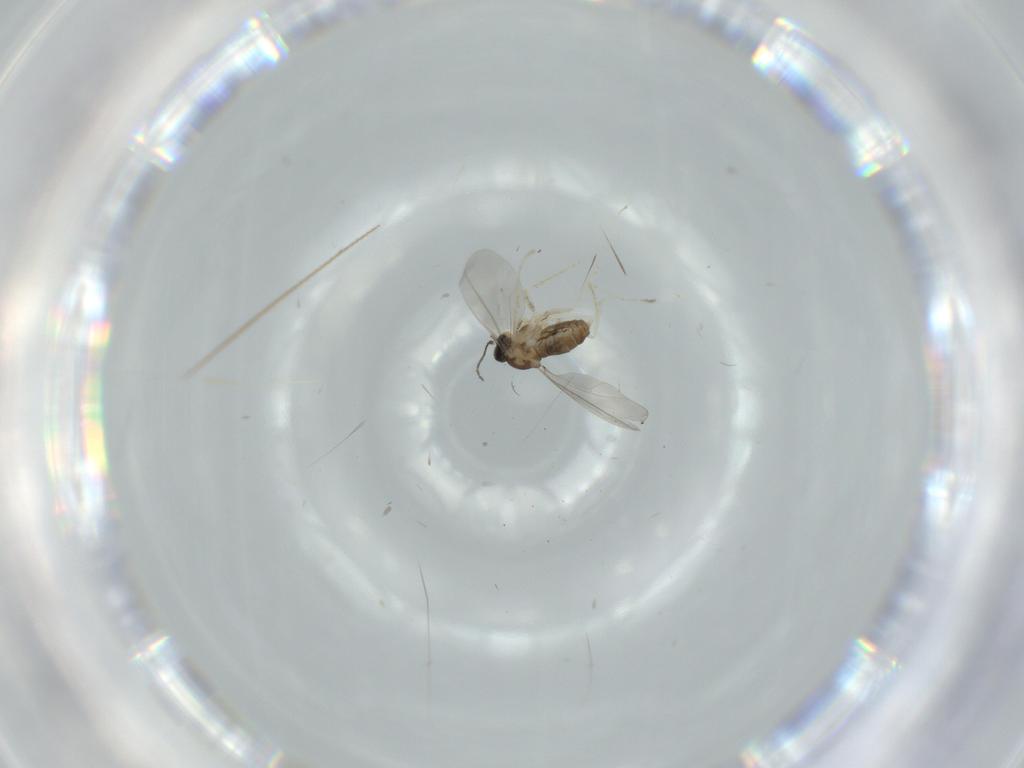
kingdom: Animalia
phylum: Arthropoda
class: Insecta
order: Diptera
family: Cecidomyiidae
